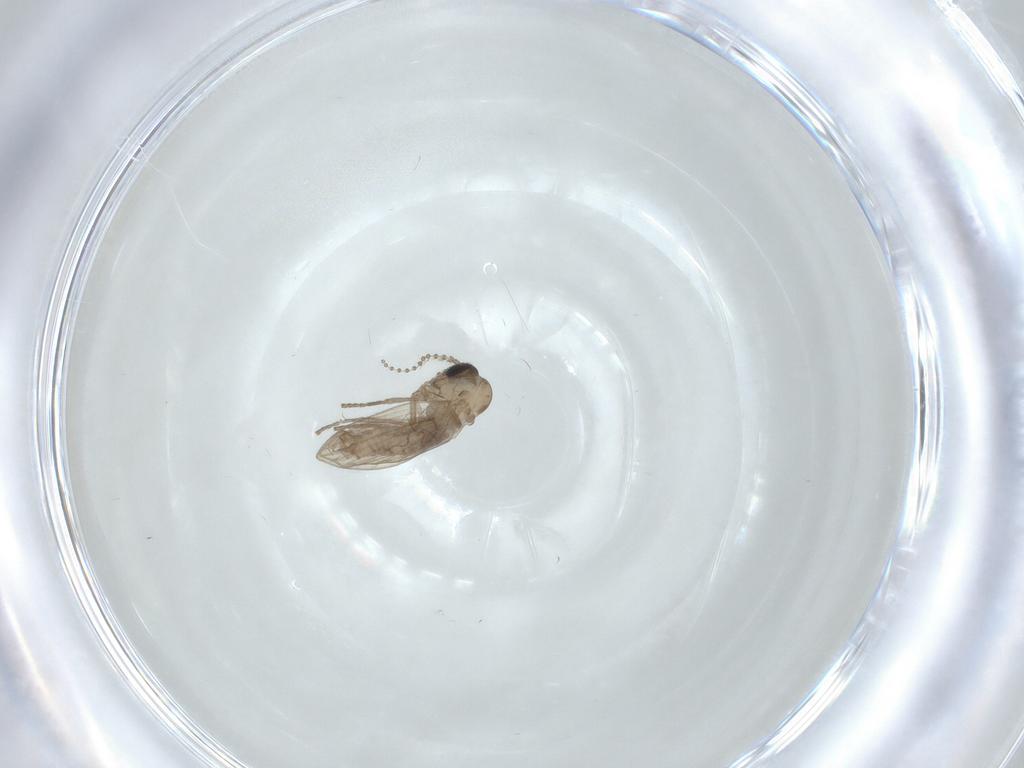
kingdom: Animalia
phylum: Arthropoda
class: Insecta
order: Diptera
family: Psychodidae
